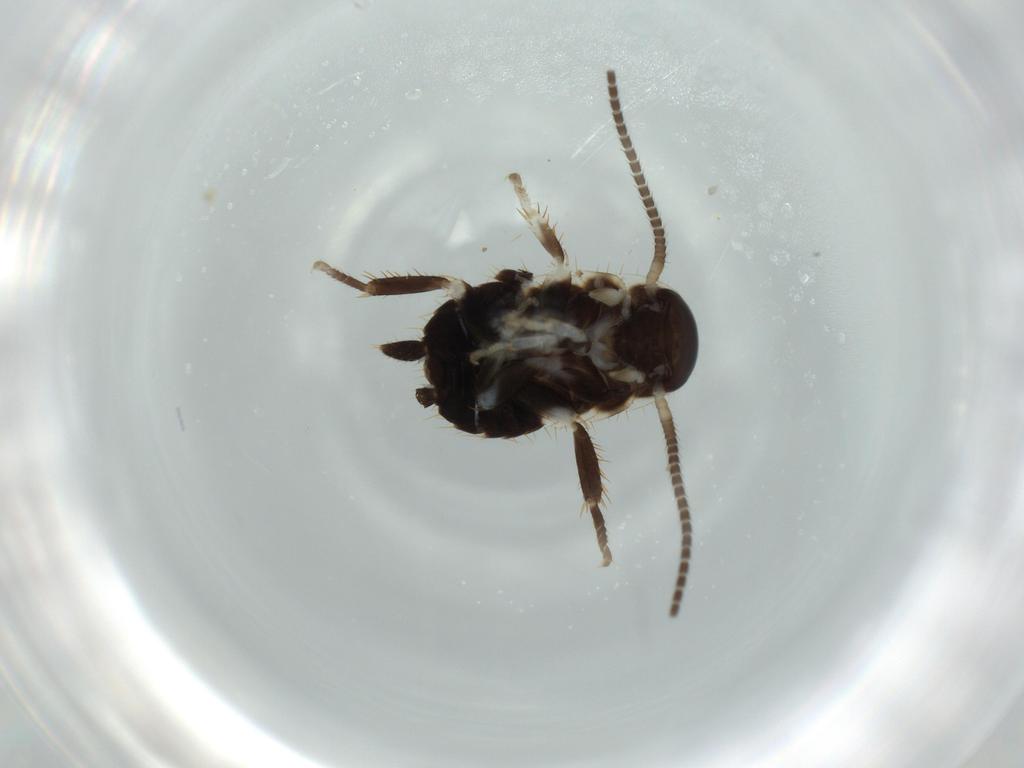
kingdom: Animalia
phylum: Arthropoda
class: Insecta
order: Blattodea
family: Ectobiidae
